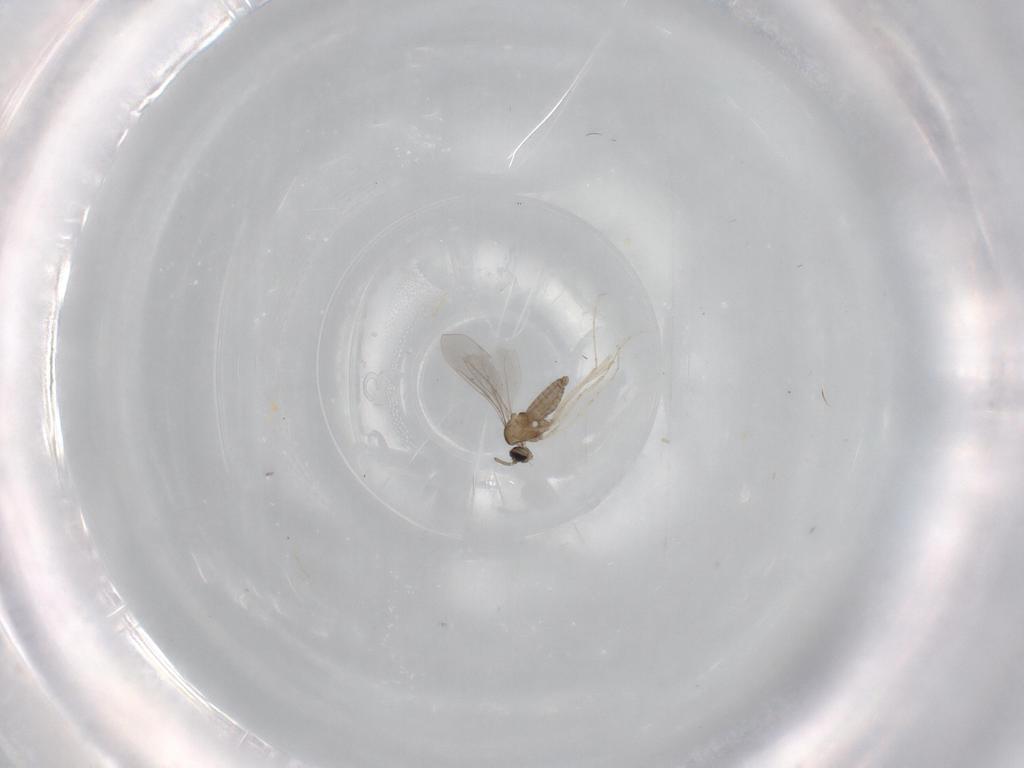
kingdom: Animalia
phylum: Arthropoda
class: Insecta
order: Diptera
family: Cecidomyiidae
